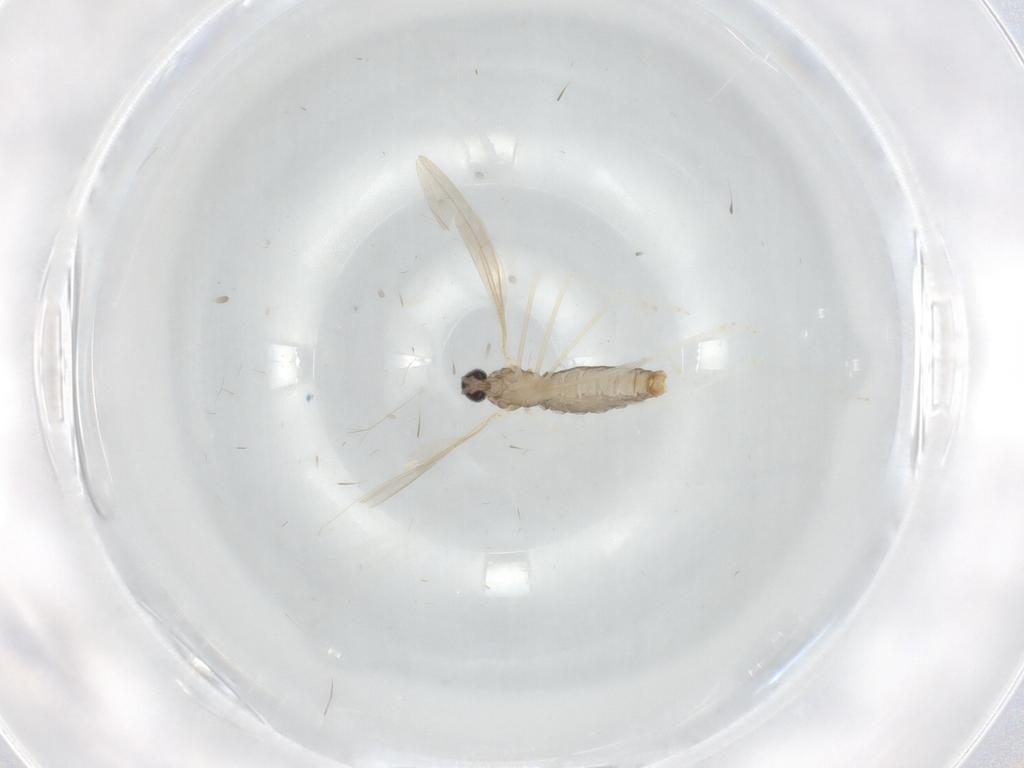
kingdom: Animalia
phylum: Arthropoda
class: Insecta
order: Diptera
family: Cecidomyiidae
